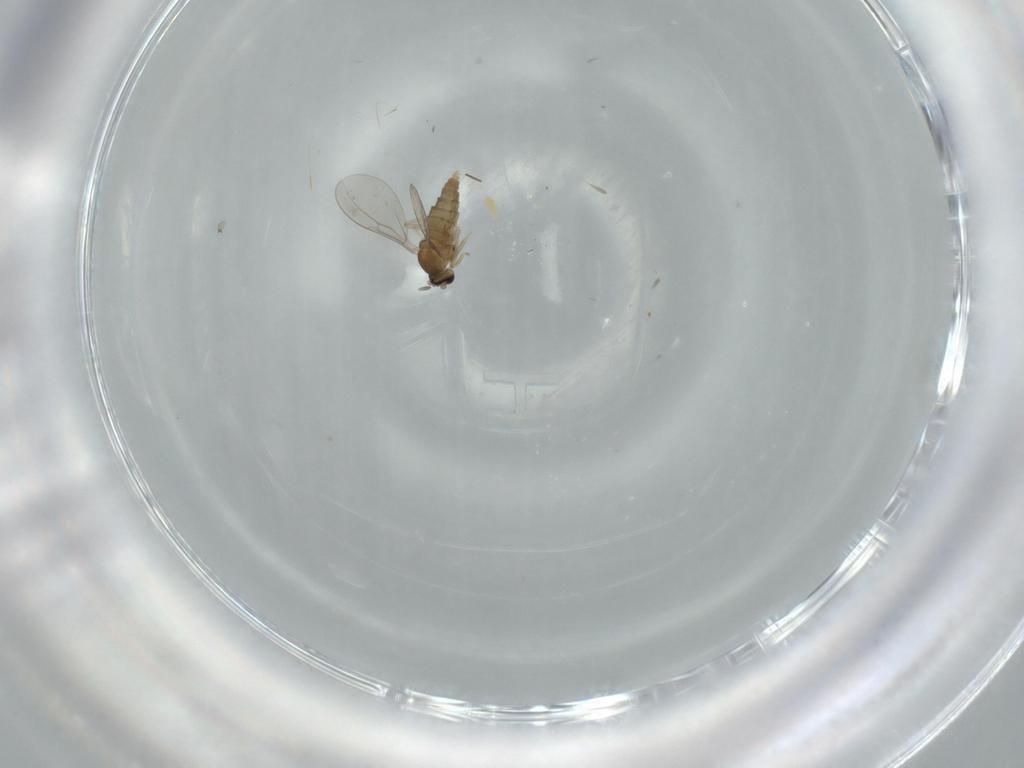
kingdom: Animalia
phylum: Arthropoda
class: Insecta
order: Diptera
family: Cecidomyiidae
